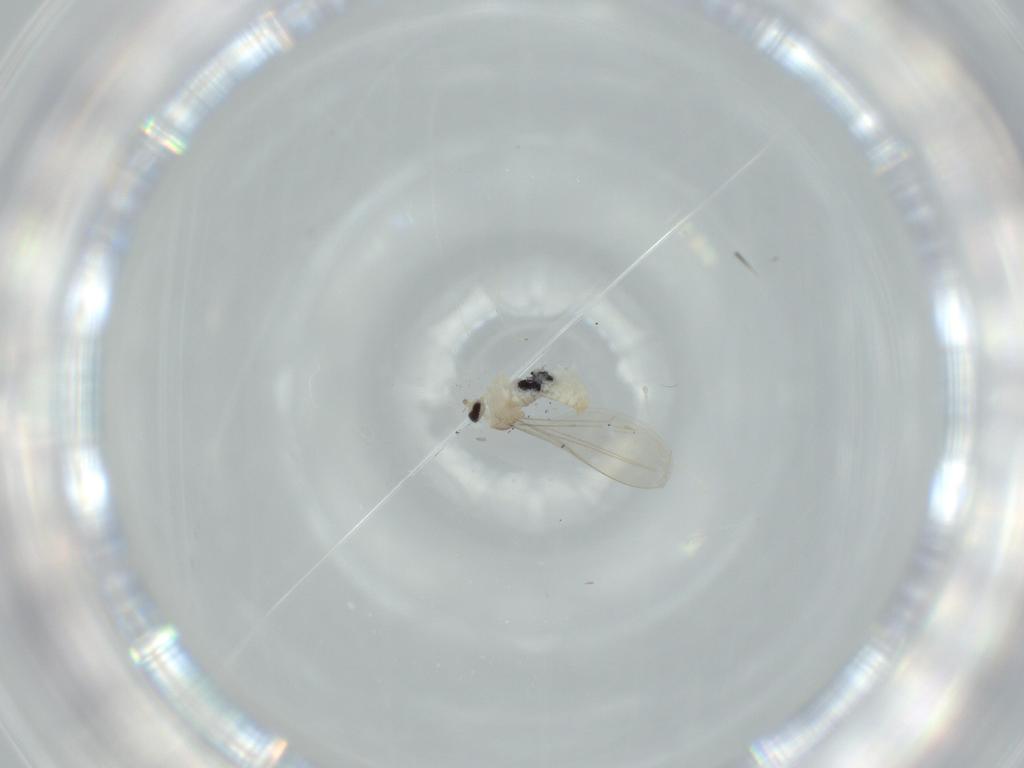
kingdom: Animalia
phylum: Arthropoda
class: Insecta
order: Diptera
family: Cecidomyiidae
